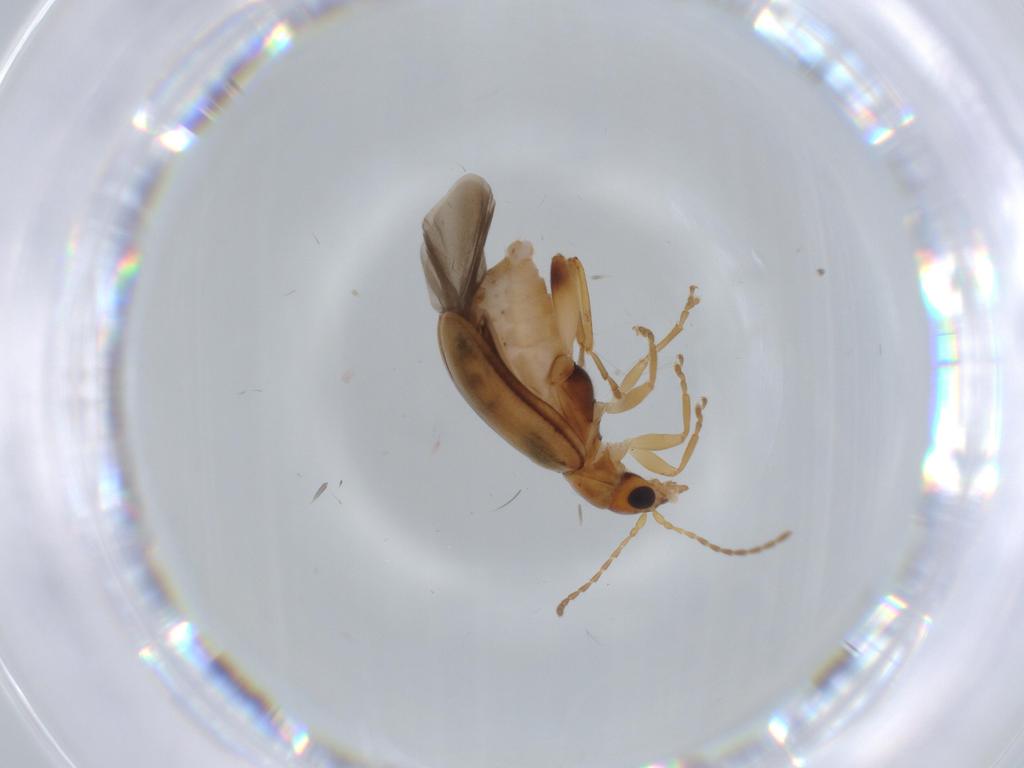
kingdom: Animalia
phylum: Arthropoda
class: Insecta
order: Coleoptera
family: Chrysomelidae
